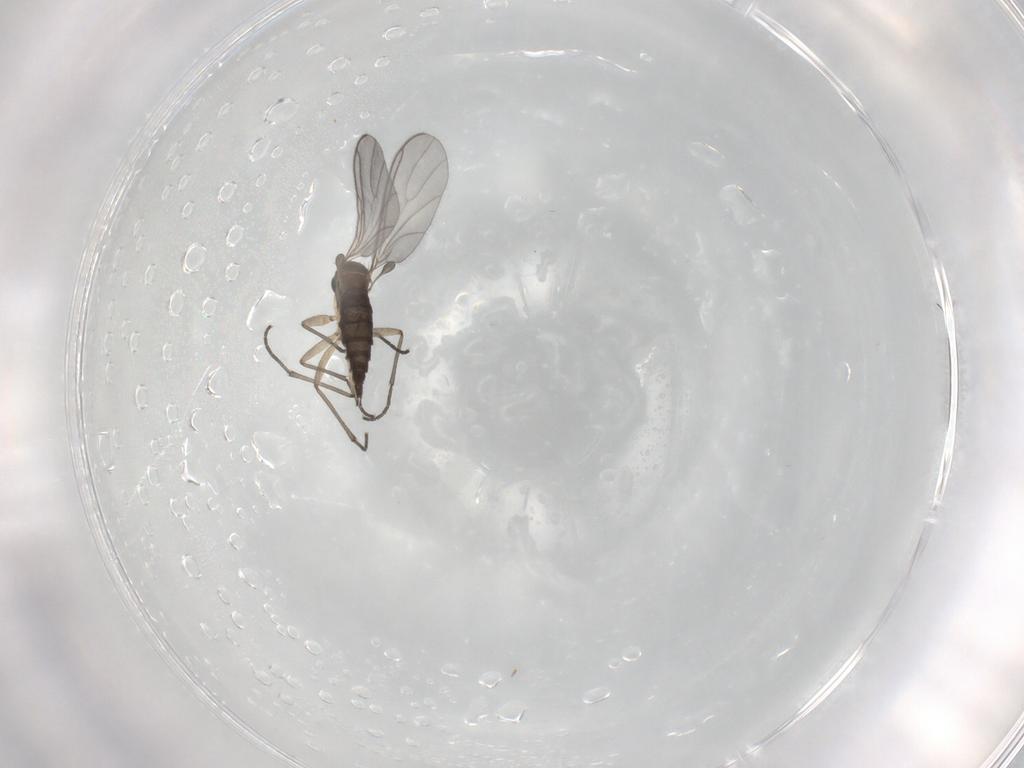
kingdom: Animalia
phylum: Arthropoda
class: Insecta
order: Diptera
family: Sciaridae
